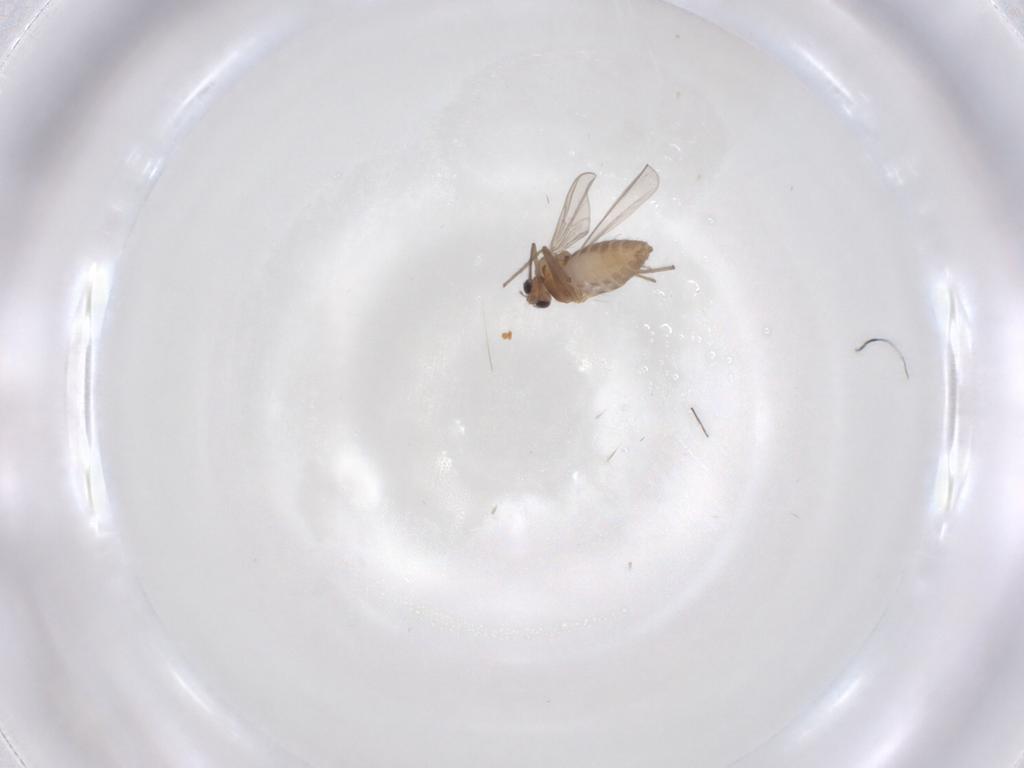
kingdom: Animalia
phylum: Arthropoda
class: Insecta
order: Diptera
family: Chironomidae
